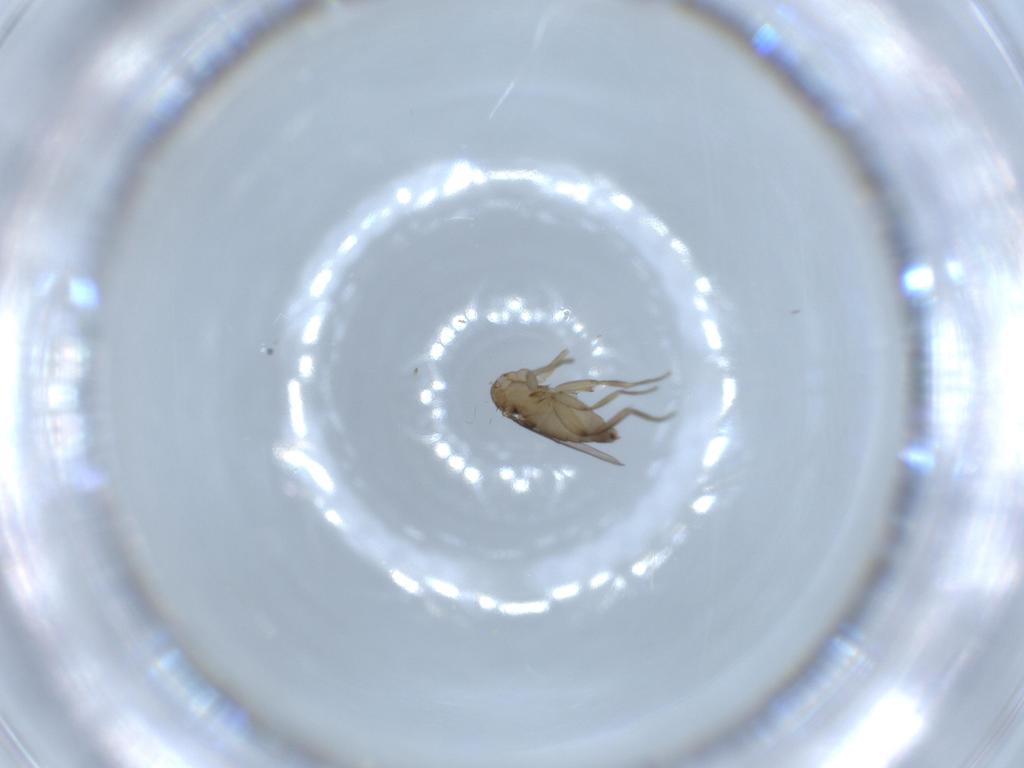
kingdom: Animalia
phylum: Arthropoda
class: Insecta
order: Diptera
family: Phoridae
